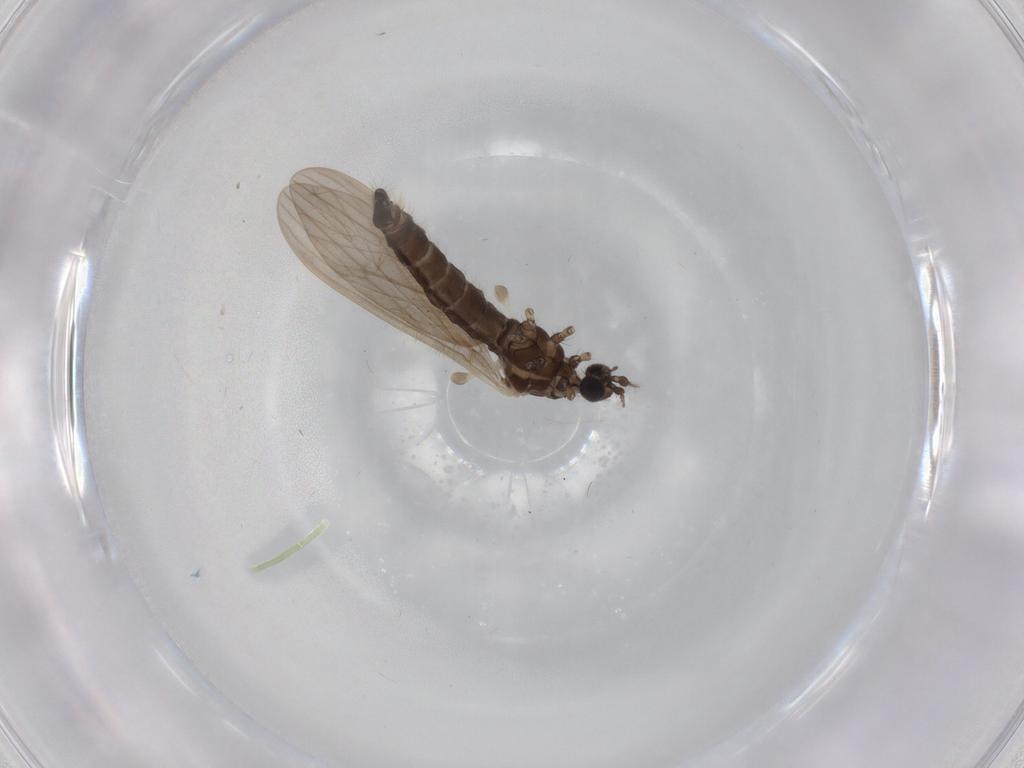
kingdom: Animalia
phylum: Arthropoda
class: Insecta
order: Diptera
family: Limoniidae
